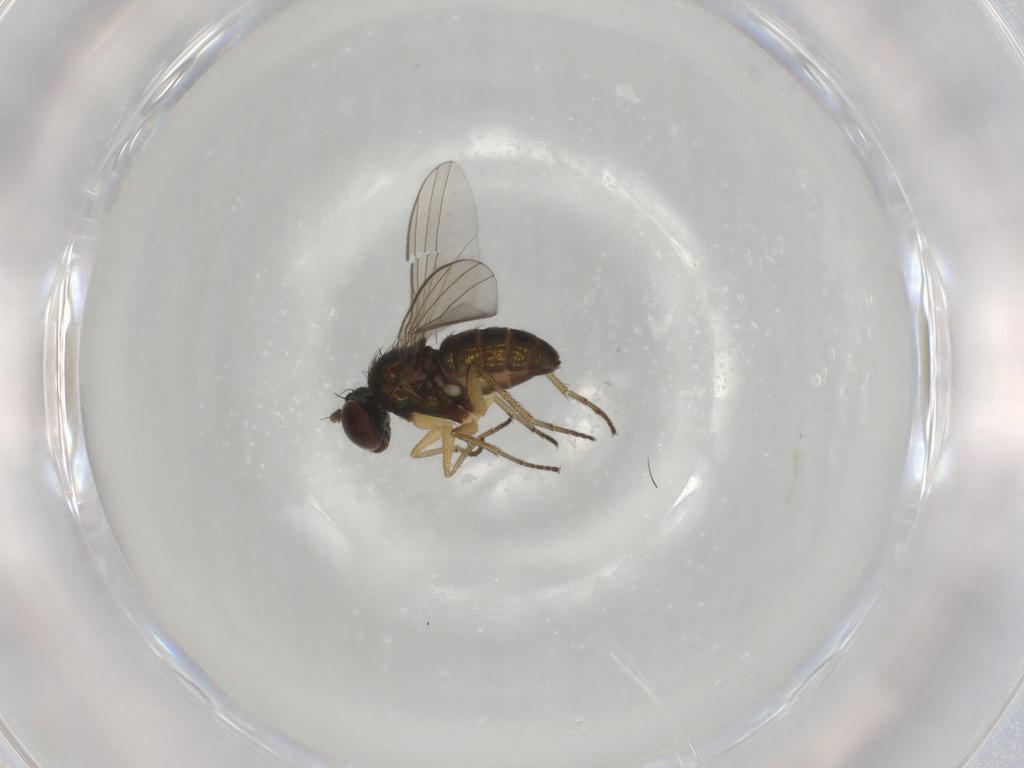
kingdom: Animalia
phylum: Arthropoda
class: Insecta
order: Diptera
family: Dolichopodidae
